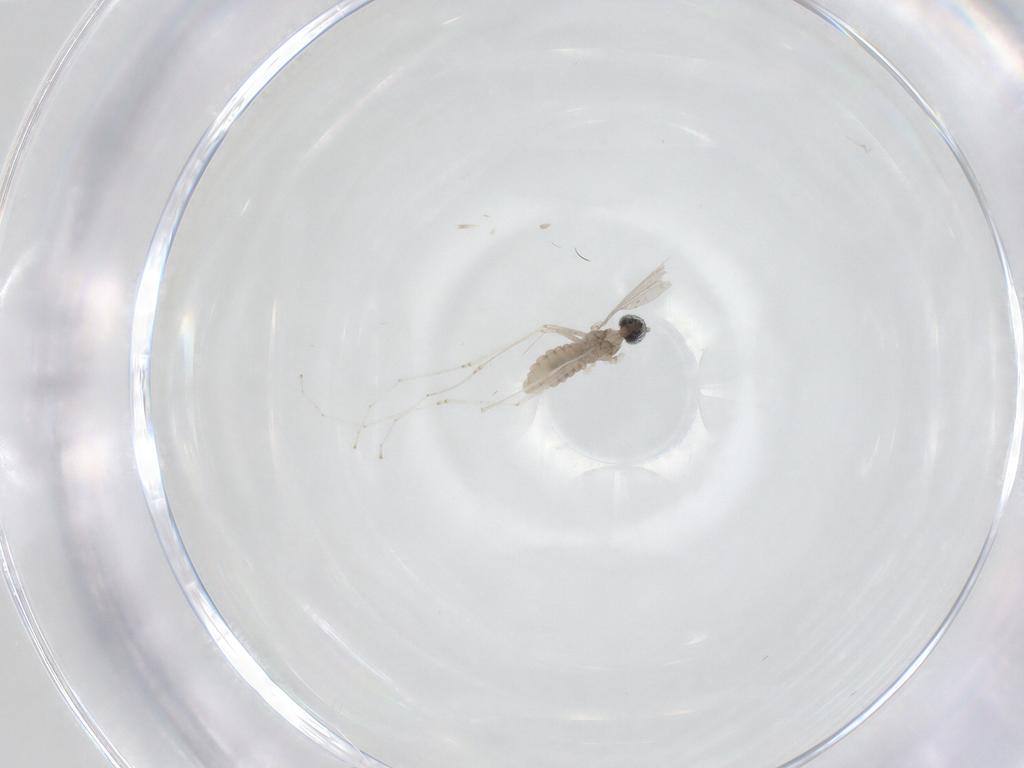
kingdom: Animalia
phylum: Arthropoda
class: Insecta
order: Diptera
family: Cecidomyiidae
